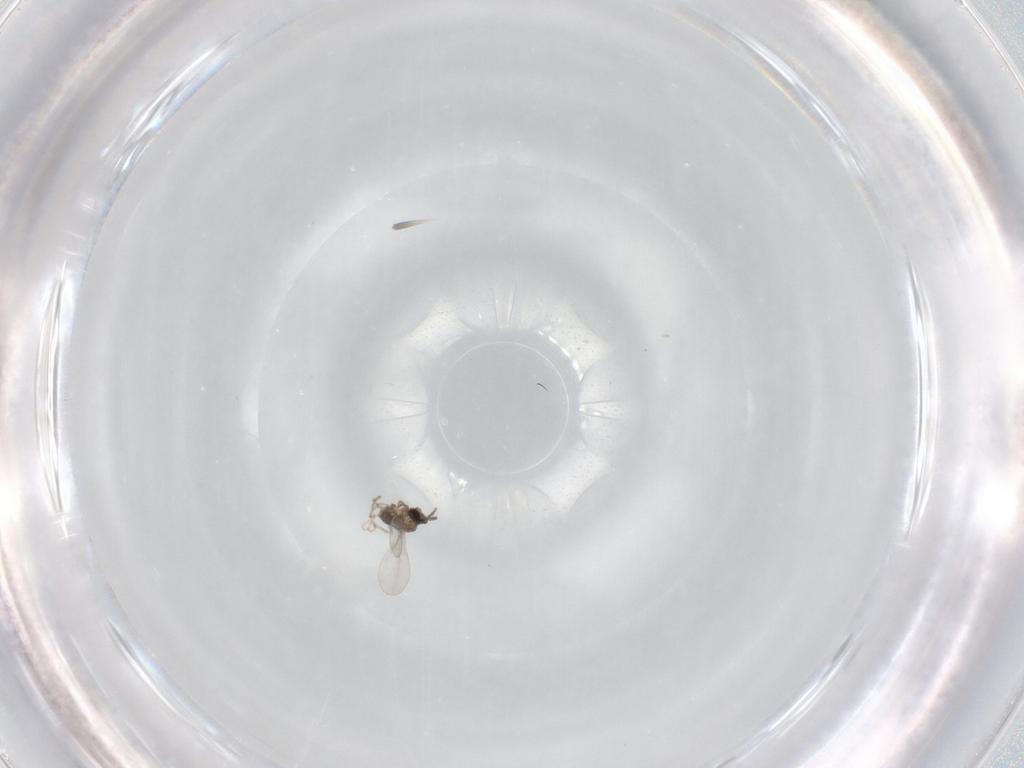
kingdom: Animalia
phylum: Arthropoda
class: Insecta
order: Diptera
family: Cecidomyiidae
